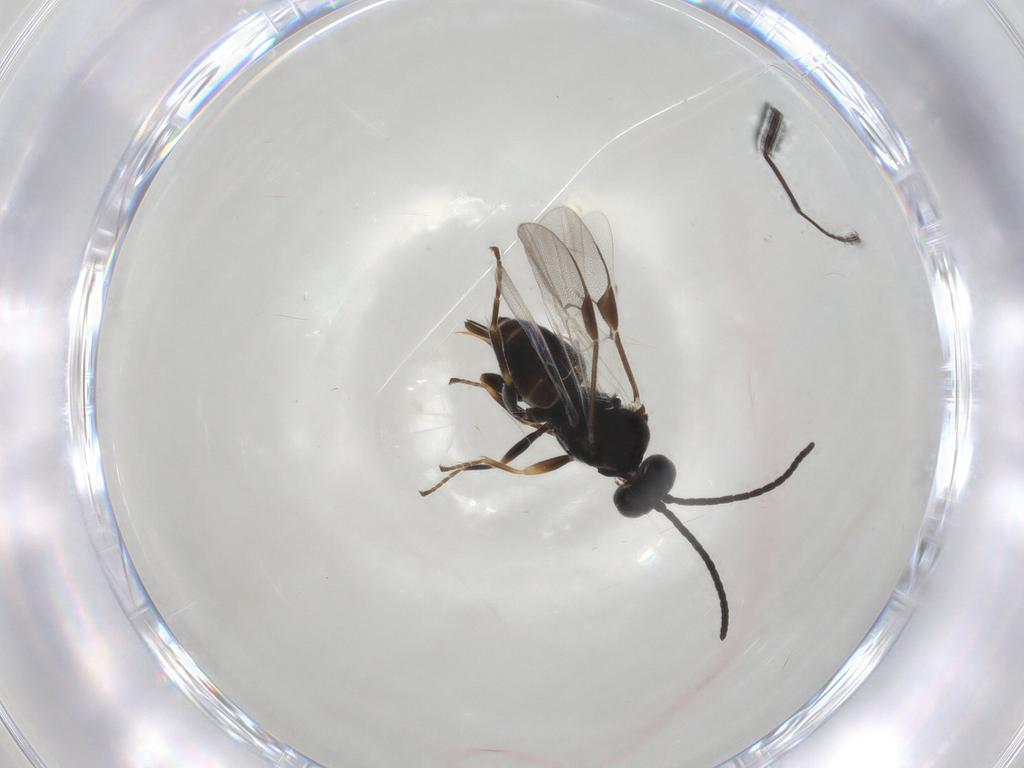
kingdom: Animalia
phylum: Arthropoda
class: Insecta
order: Hymenoptera
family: Braconidae
